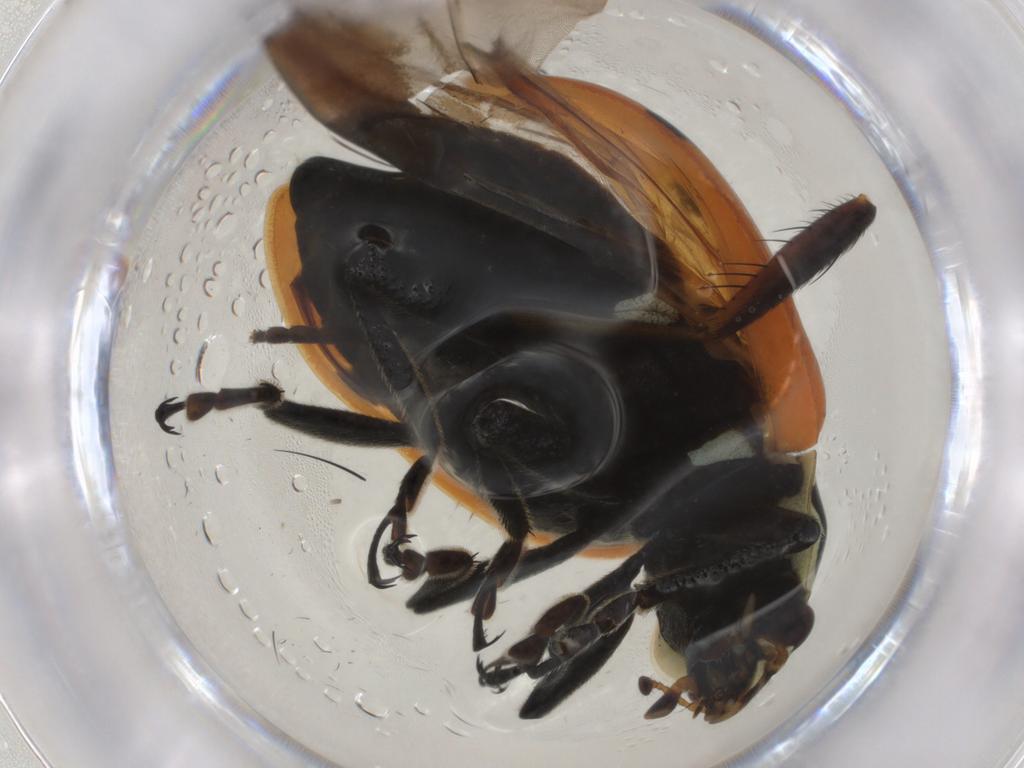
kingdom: Animalia
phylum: Arthropoda
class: Insecta
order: Coleoptera
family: Coccinellidae
